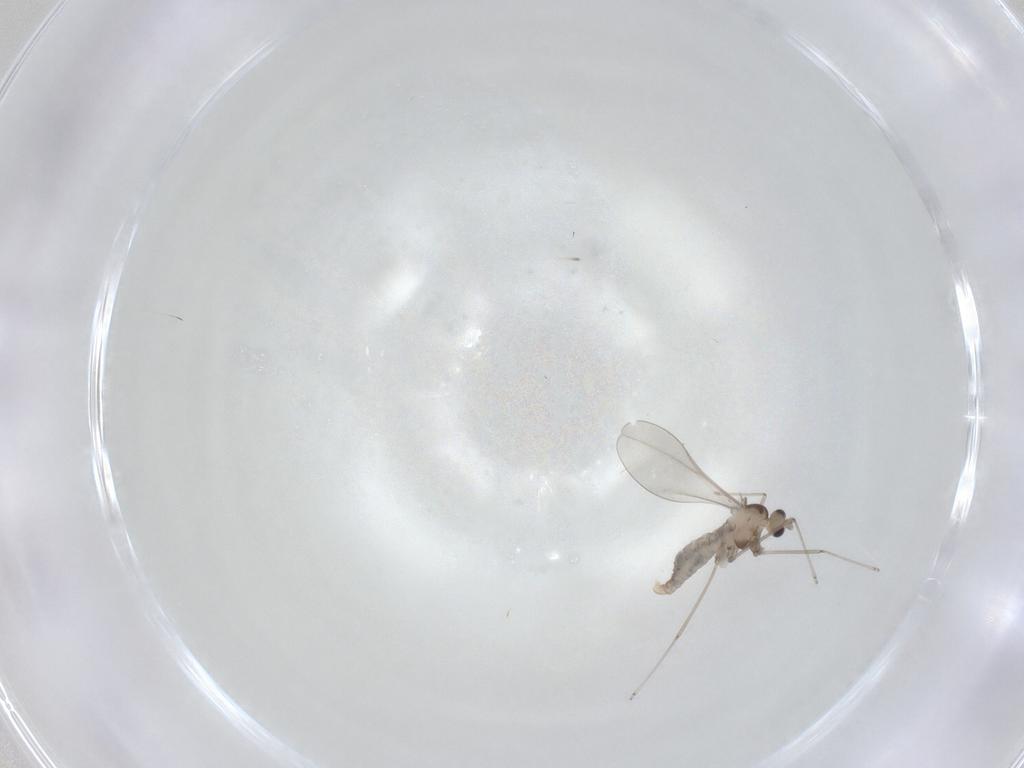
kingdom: Animalia
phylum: Arthropoda
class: Insecta
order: Diptera
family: Cecidomyiidae
